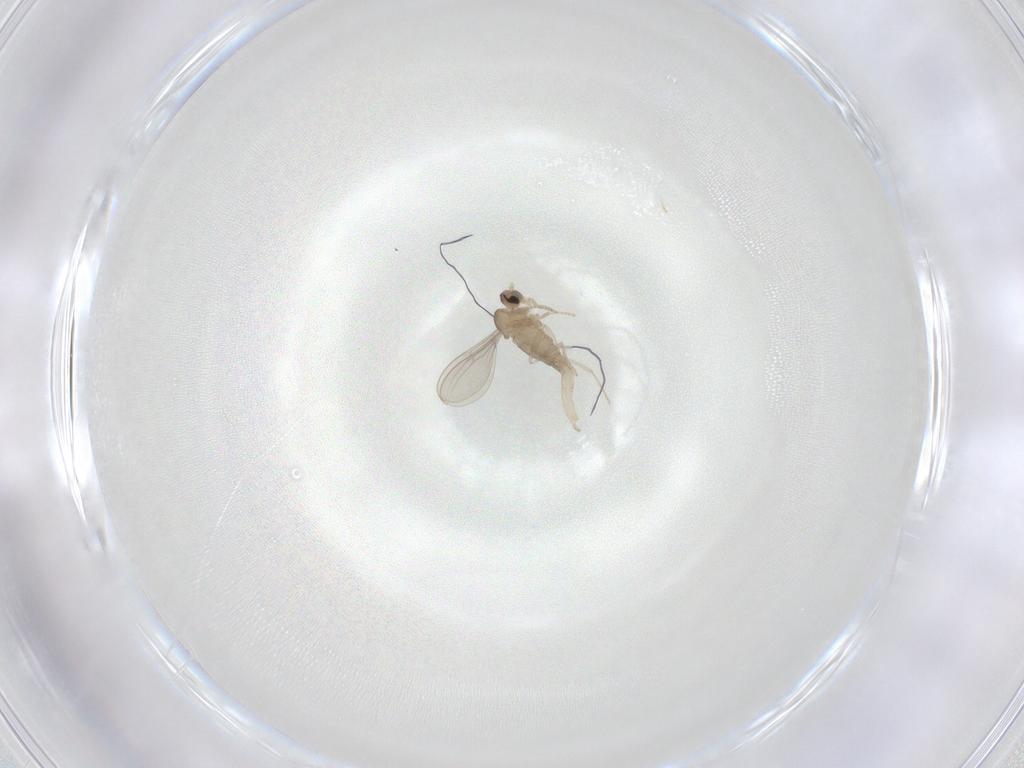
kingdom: Animalia
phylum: Arthropoda
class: Insecta
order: Diptera
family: Cecidomyiidae
